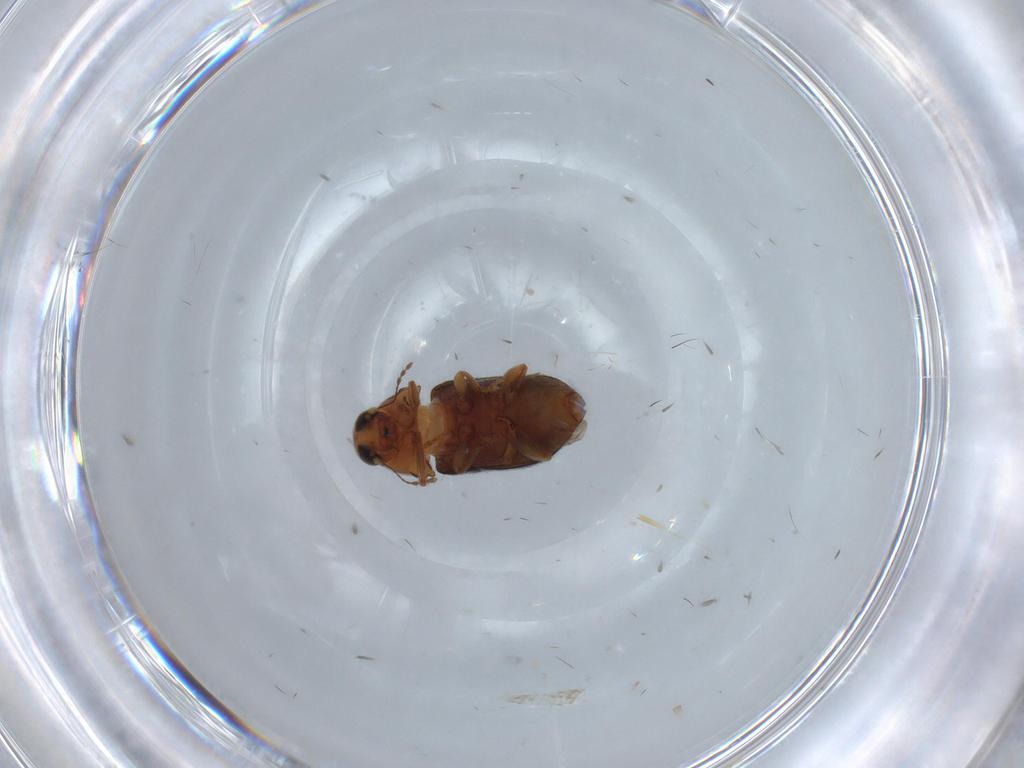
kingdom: Animalia
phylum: Arthropoda
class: Insecta
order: Coleoptera
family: Anthribidae
